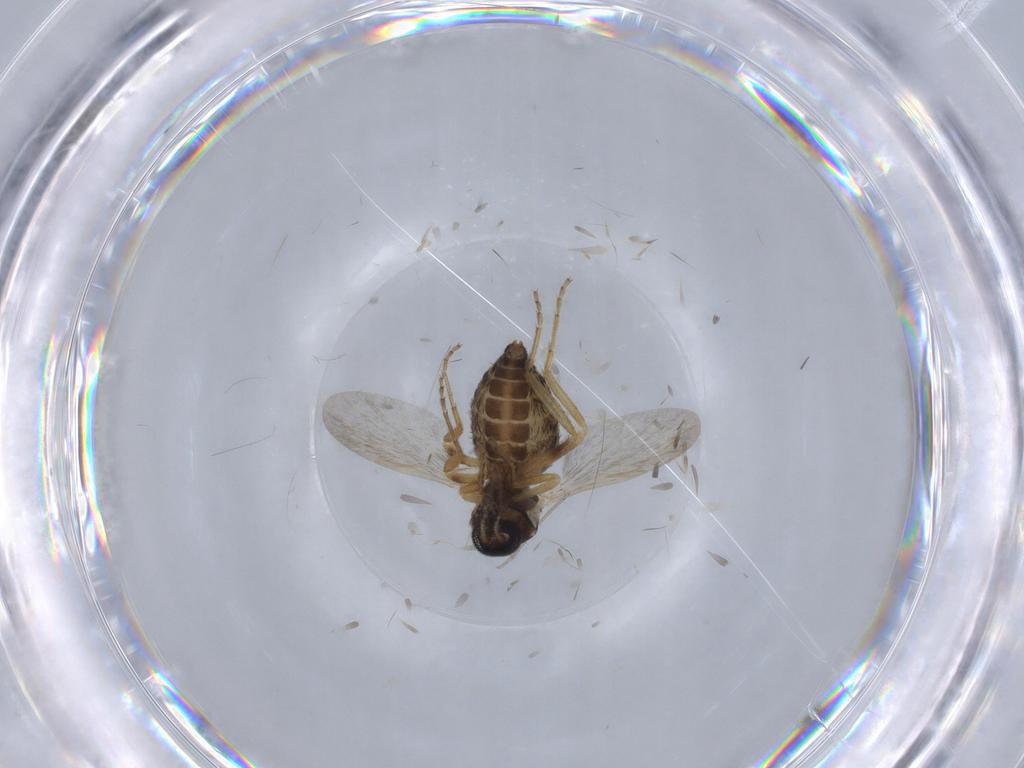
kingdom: Animalia
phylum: Arthropoda
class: Insecta
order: Diptera
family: Ceratopogonidae
